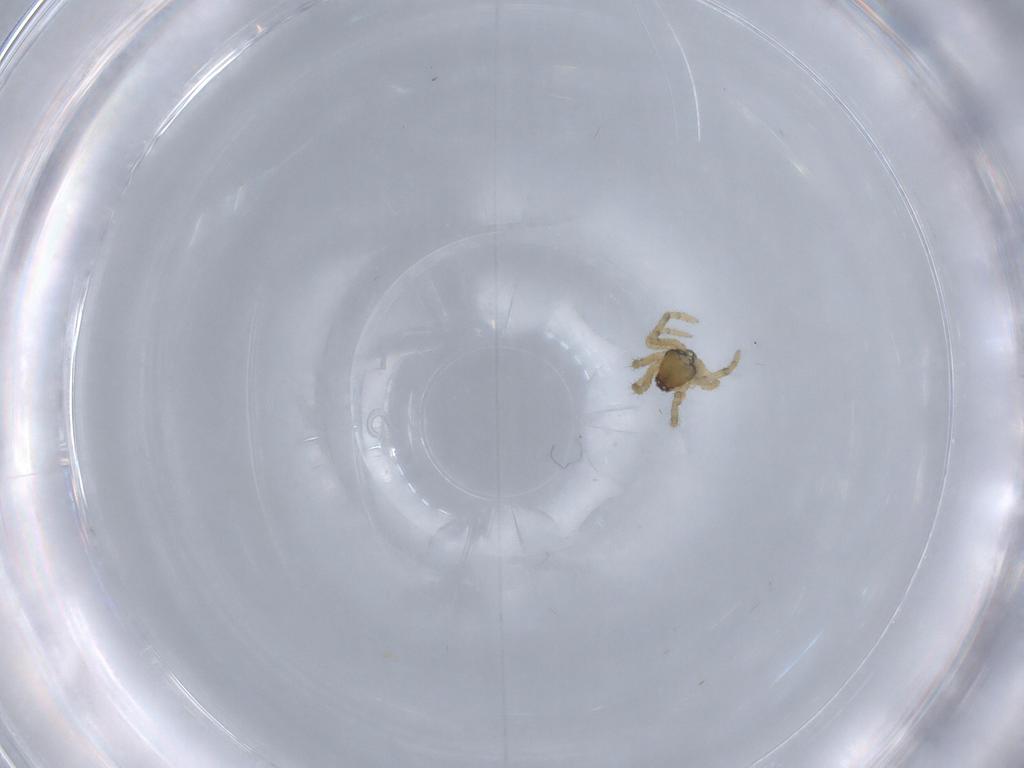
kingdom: Animalia
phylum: Arthropoda
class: Arachnida
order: Araneae
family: Theridiidae
